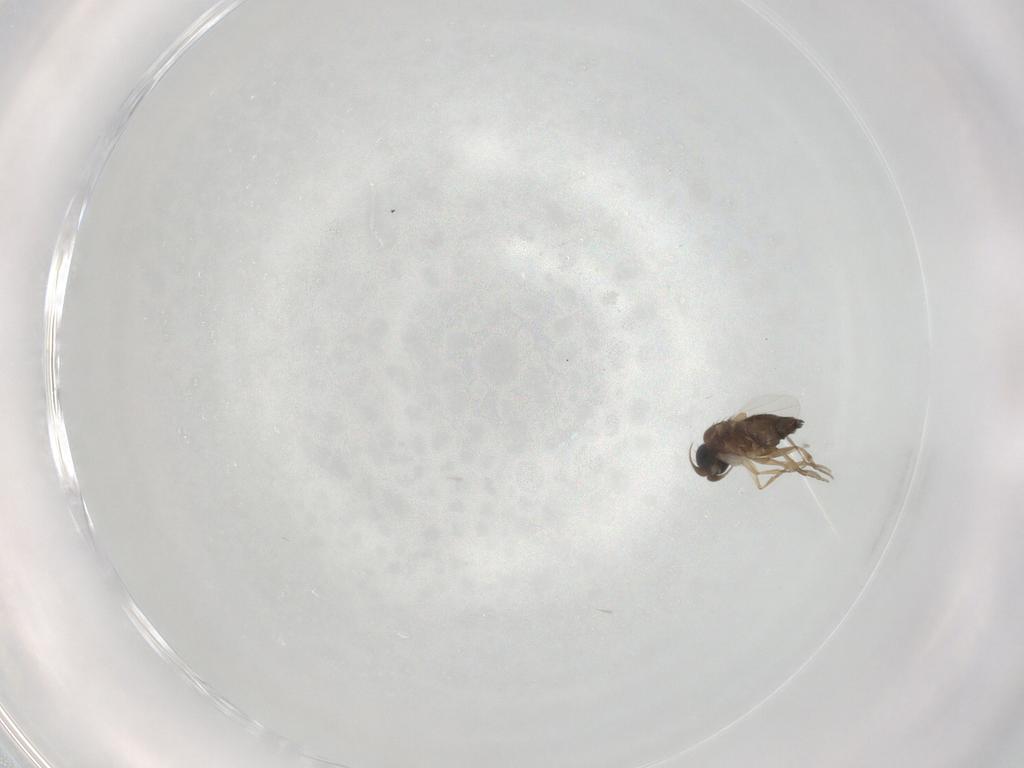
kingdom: Animalia
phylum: Arthropoda
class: Insecta
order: Diptera
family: Phoridae
